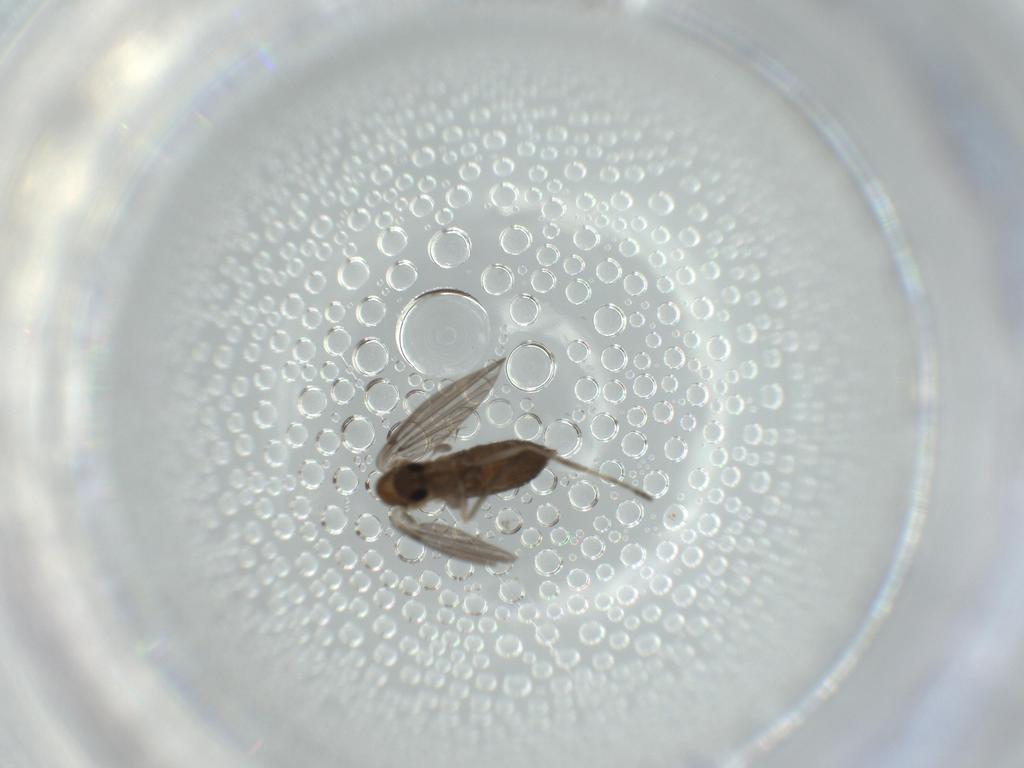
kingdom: Animalia
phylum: Arthropoda
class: Insecta
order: Diptera
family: Psychodidae
